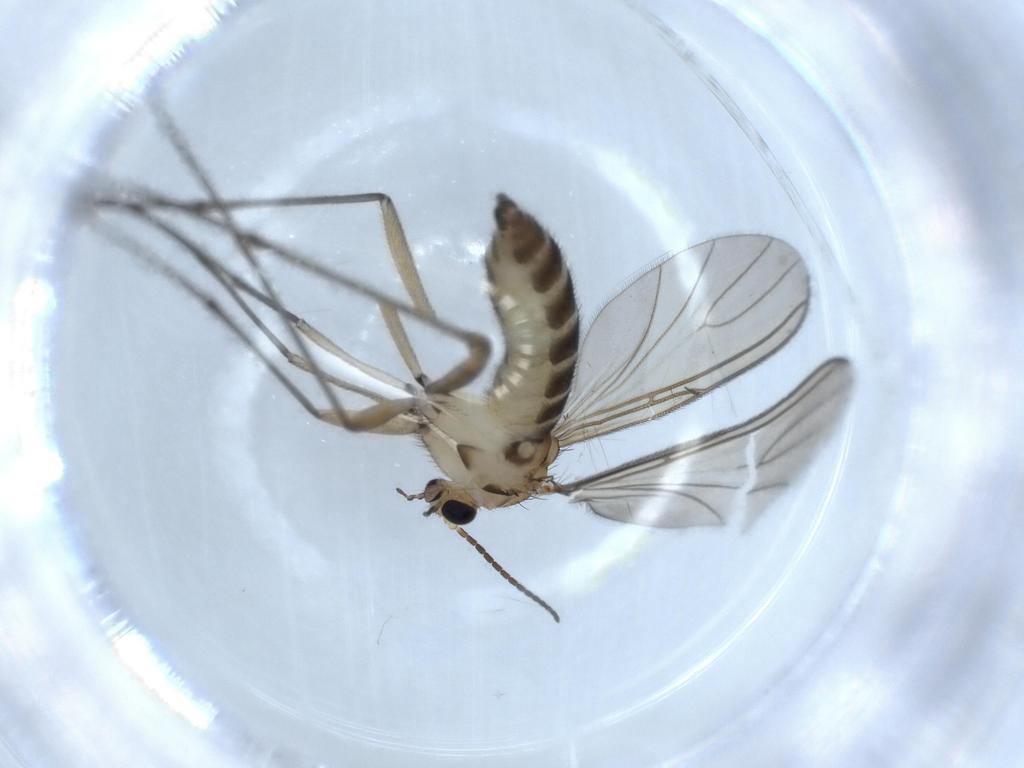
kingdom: Animalia
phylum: Arthropoda
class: Insecta
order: Diptera
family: Sciaridae
